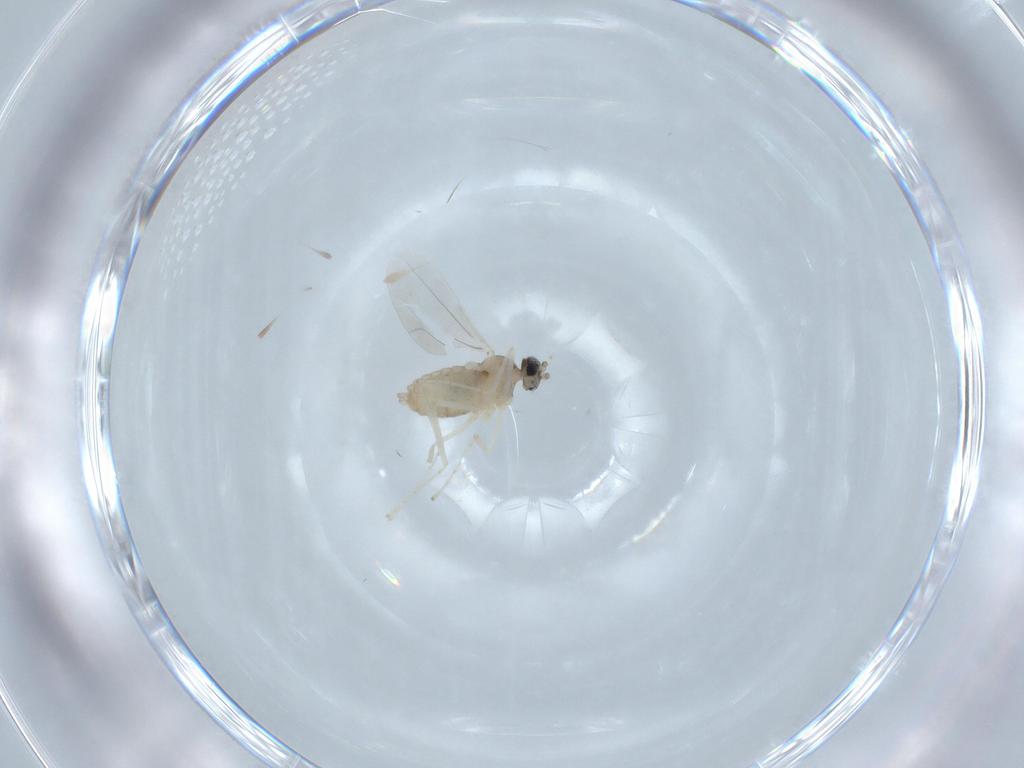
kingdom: Animalia
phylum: Arthropoda
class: Insecta
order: Diptera
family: Cecidomyiidae
